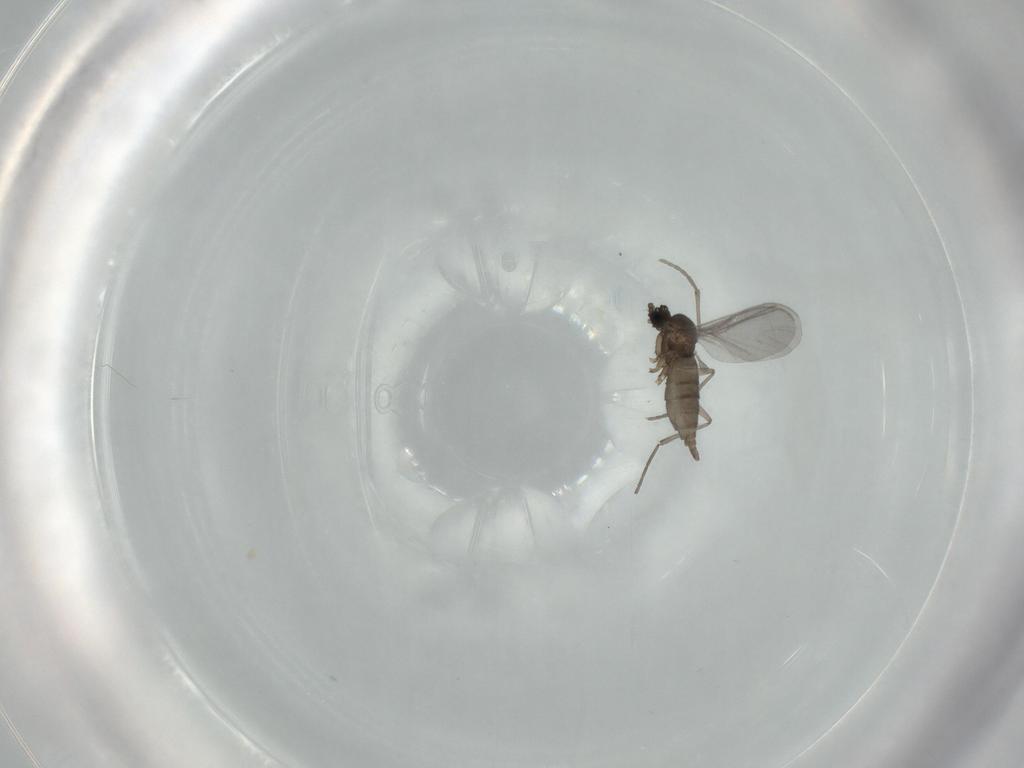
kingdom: Animalia
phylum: Arthropoda
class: Insecta
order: Diptera
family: Sciaridae
